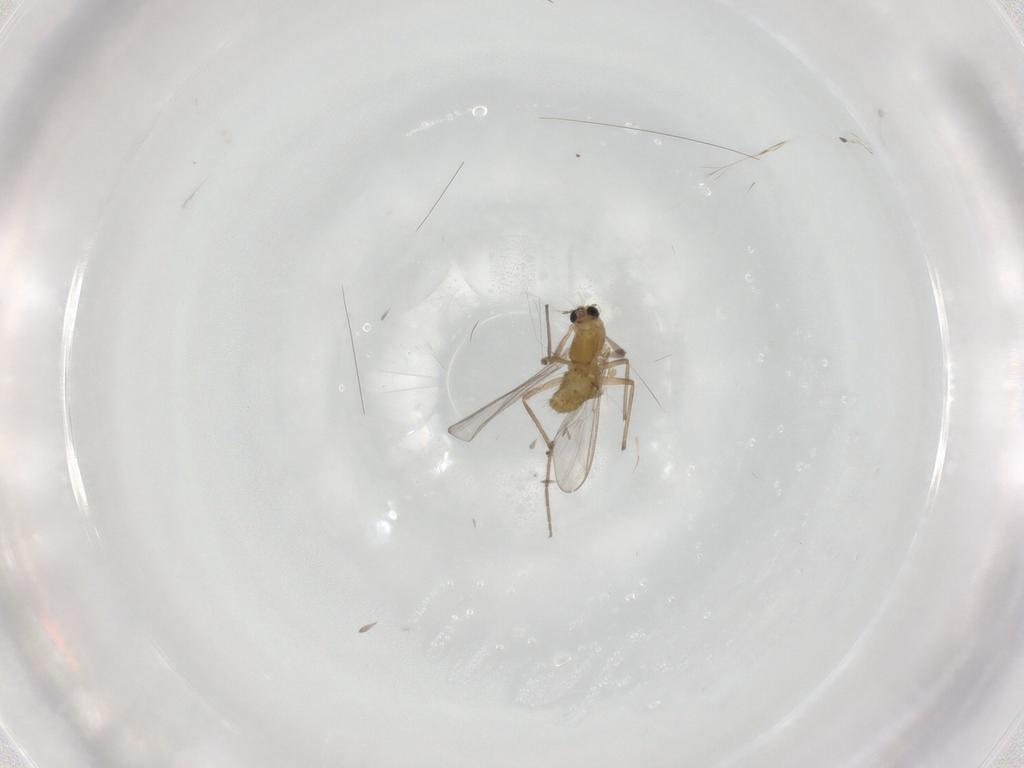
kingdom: Animalia
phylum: Arthropoda
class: Insecta
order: Diptera
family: Chironomidae
